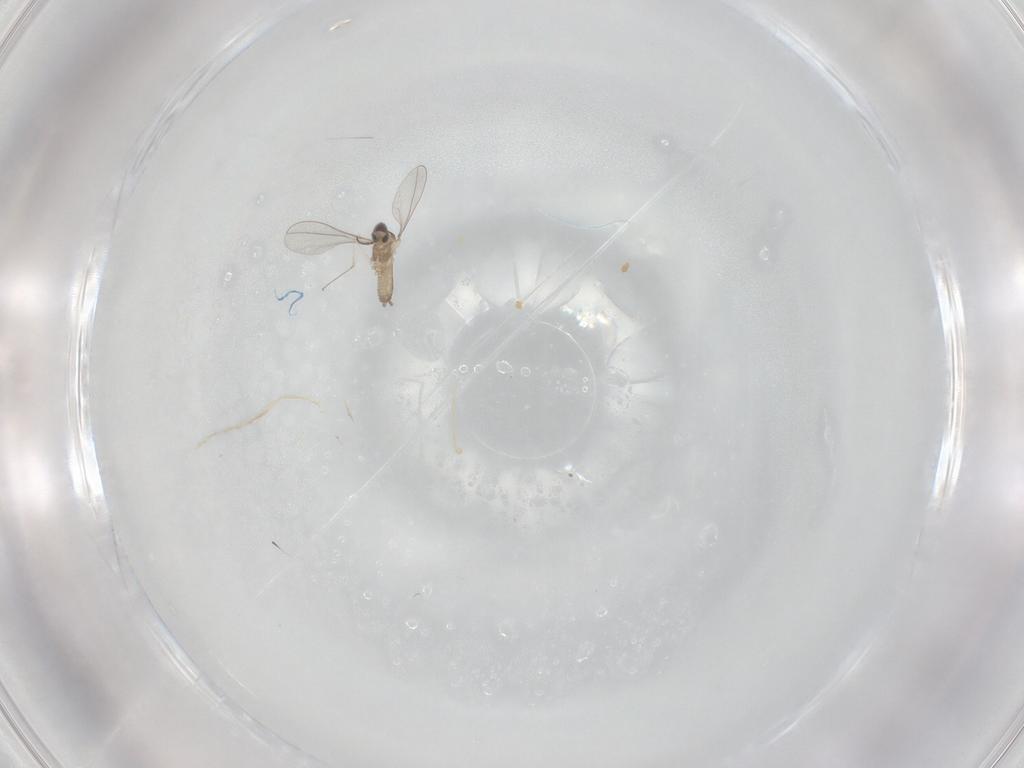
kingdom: Animalia
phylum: Arthropoda
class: Insecta
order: Diptera
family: Cecidomyiidae
